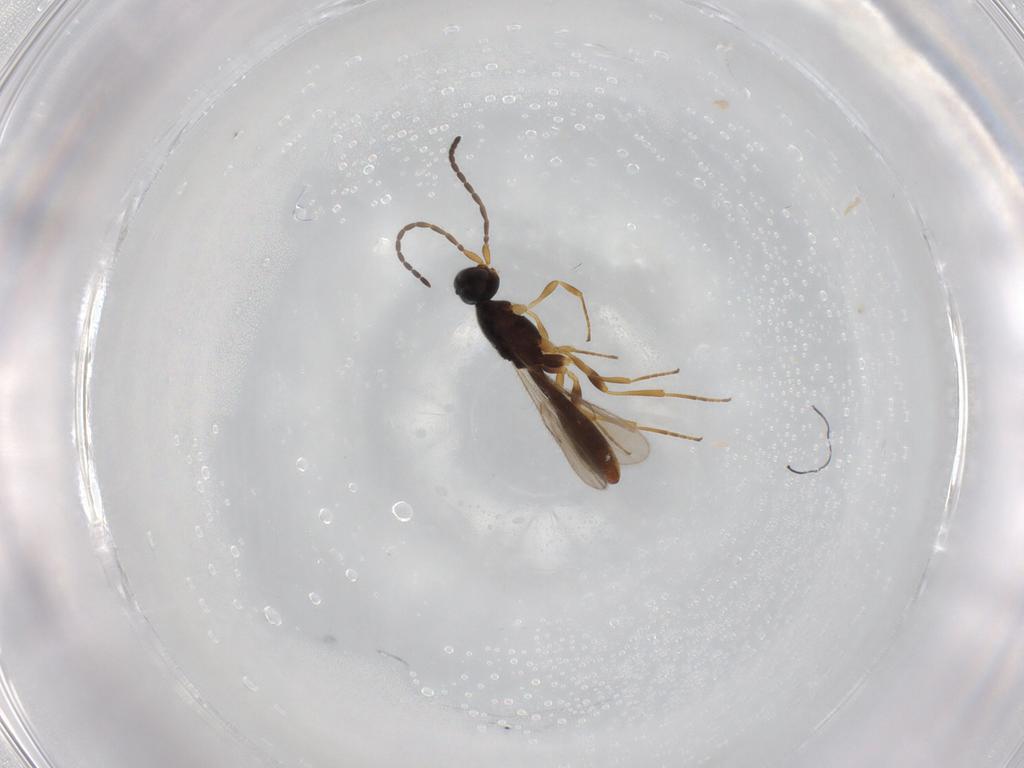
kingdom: Animalia
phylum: Arthropoda
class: Insecta
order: Hymenoptera
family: Scelionidae
